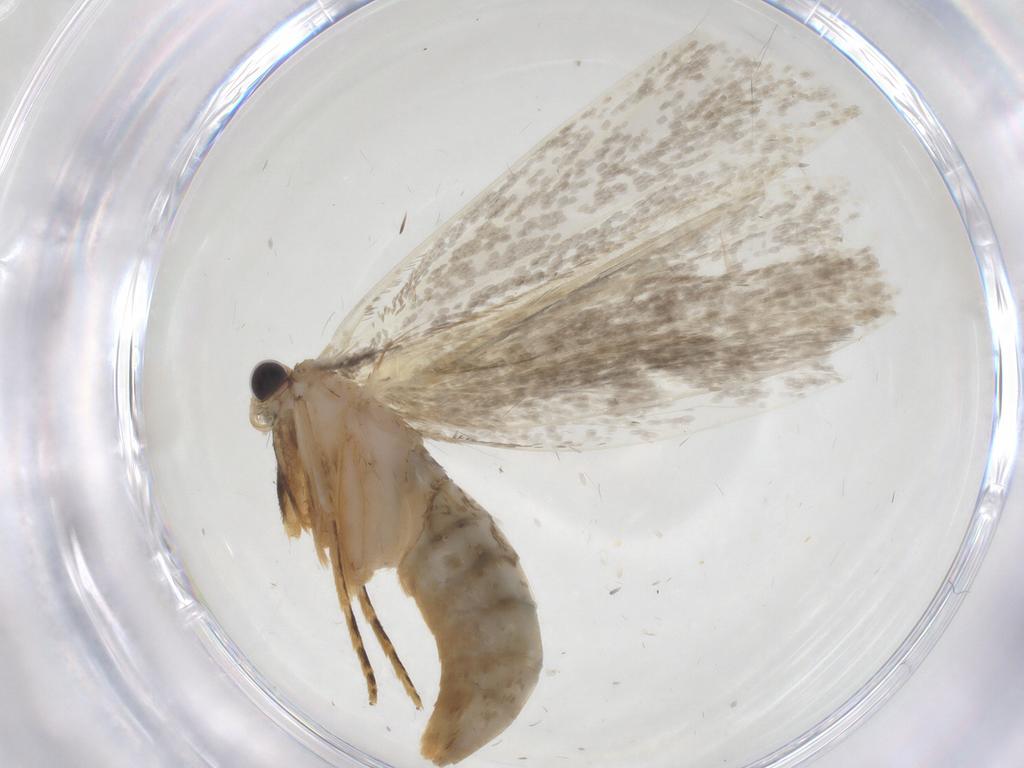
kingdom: Animalia
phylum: Arthropoda
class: Insecta
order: Lepidoptera
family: Tineidae
